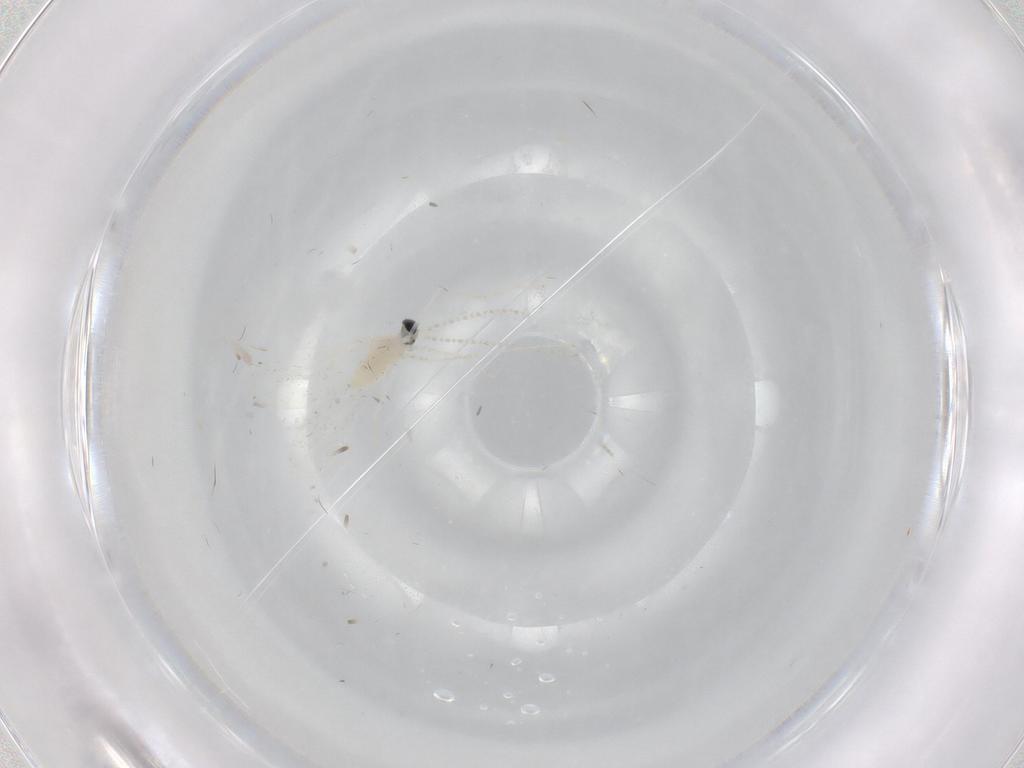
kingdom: Animalia
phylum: Arthropoda
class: Insecta
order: Diptera
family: Cecidomyiidae
